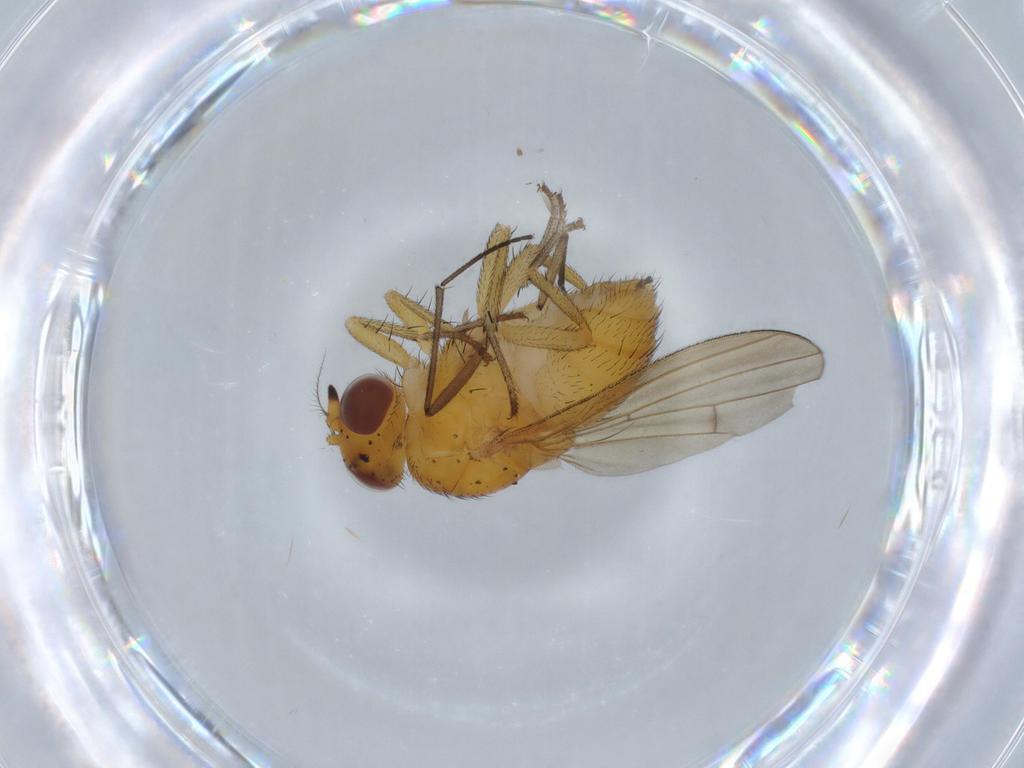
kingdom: Animalia
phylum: Arthropoda
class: Insecta
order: Diptera
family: Lauxaniidae
